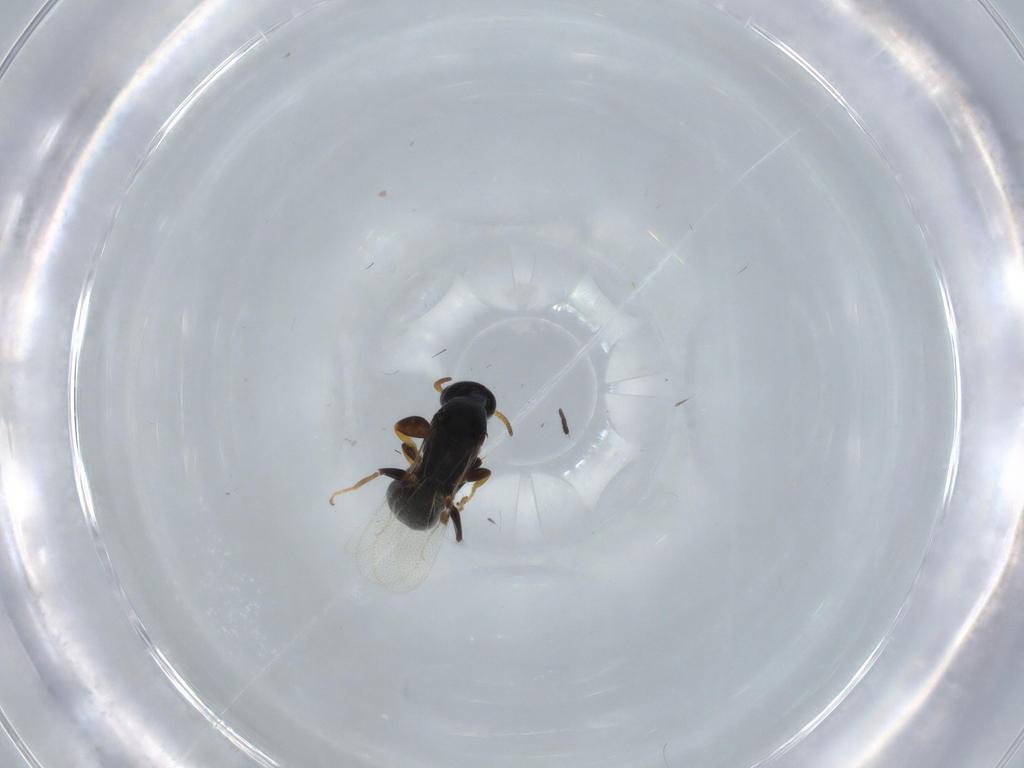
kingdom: Animalia
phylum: Arthropoda
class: Insecta
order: Hymenoptera
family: Bethylidae
